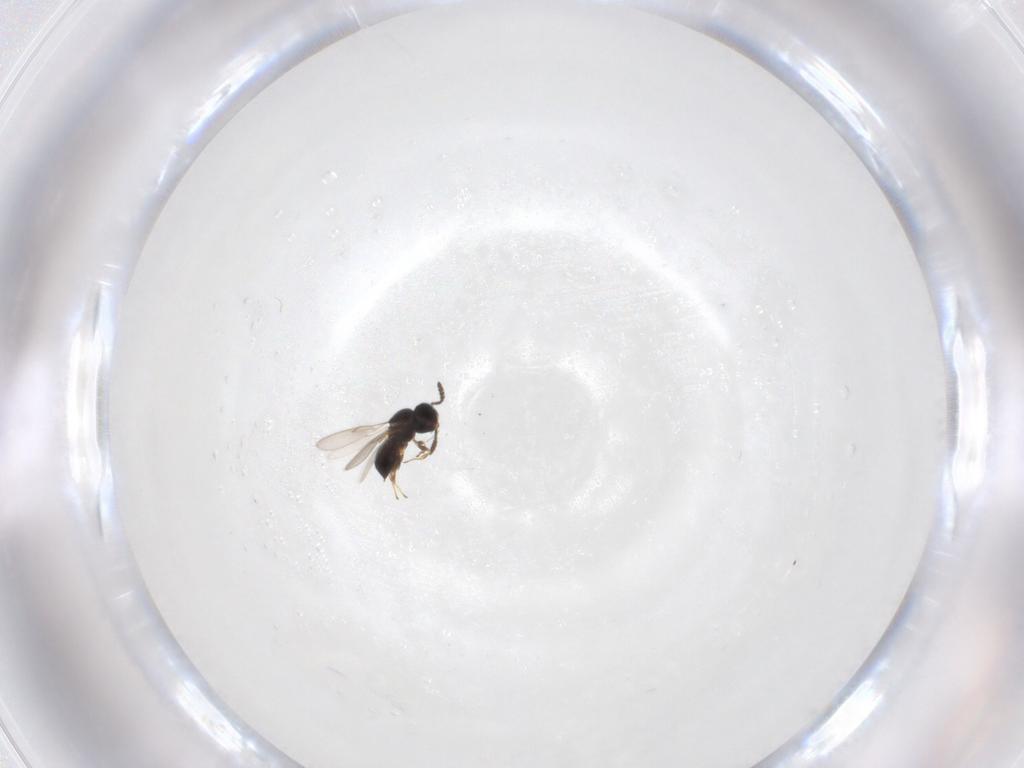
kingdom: Animalia
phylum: Arthropoda
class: Insecta
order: Hymenoptera
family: Scelionidae
